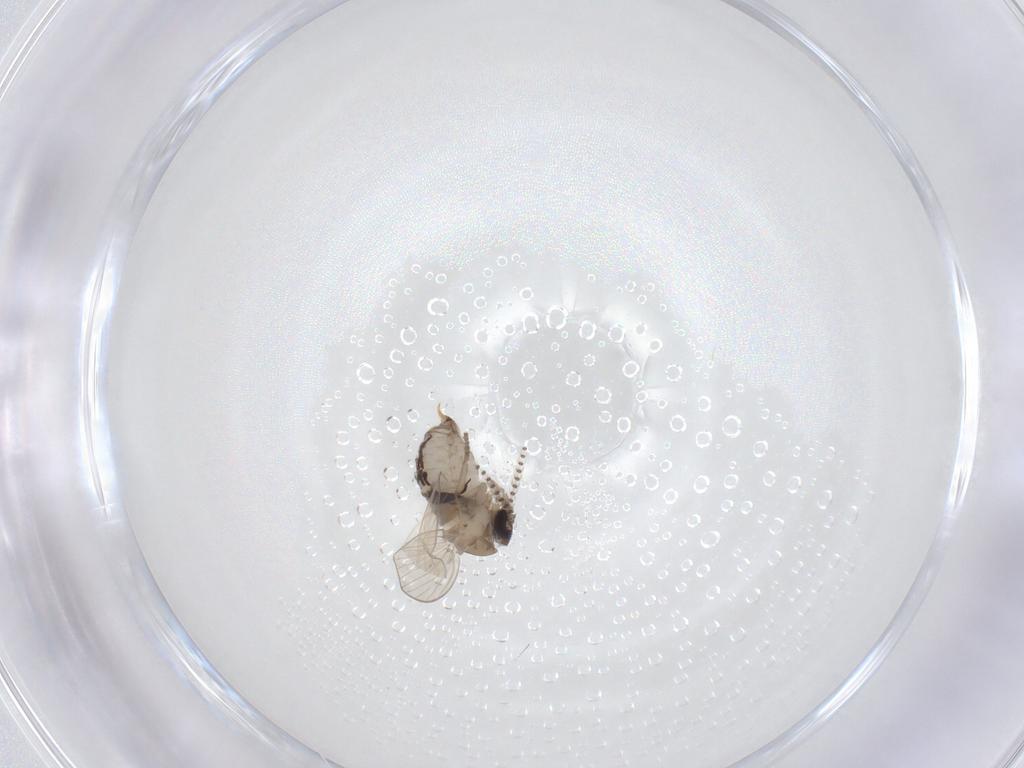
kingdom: Animalia
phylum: Arthropoda
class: Insecta
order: Diptera
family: Psychodidae
